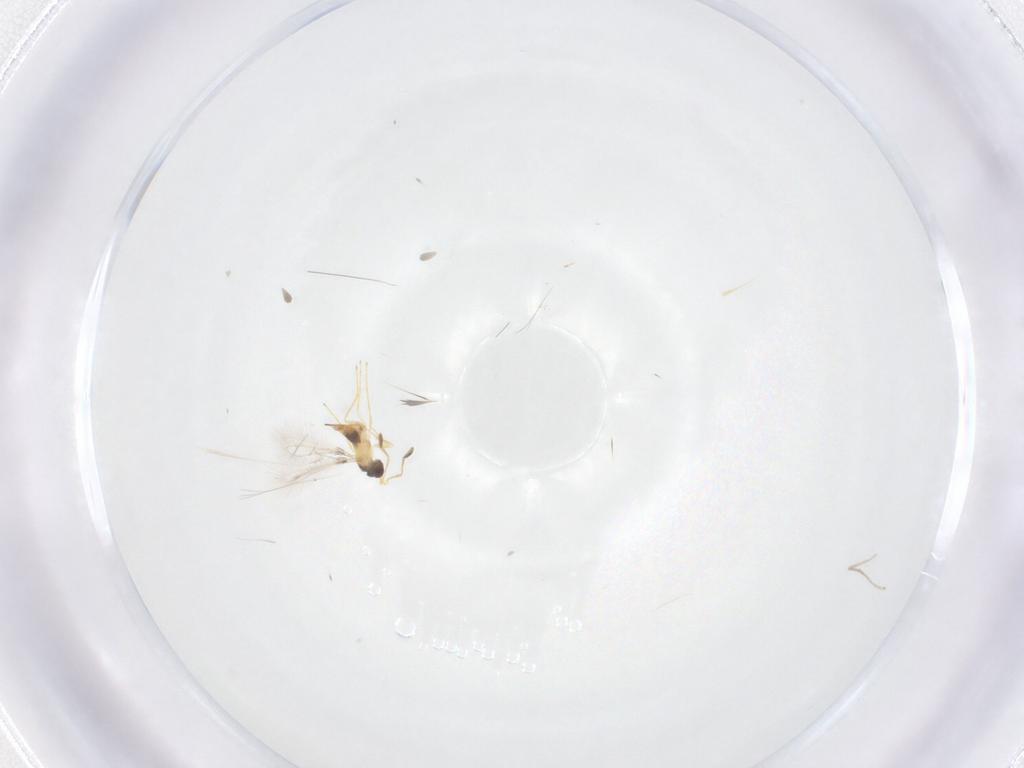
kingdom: Animalia
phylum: Arthropoda
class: Insecta
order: Hymenoptera
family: Mymaridae
